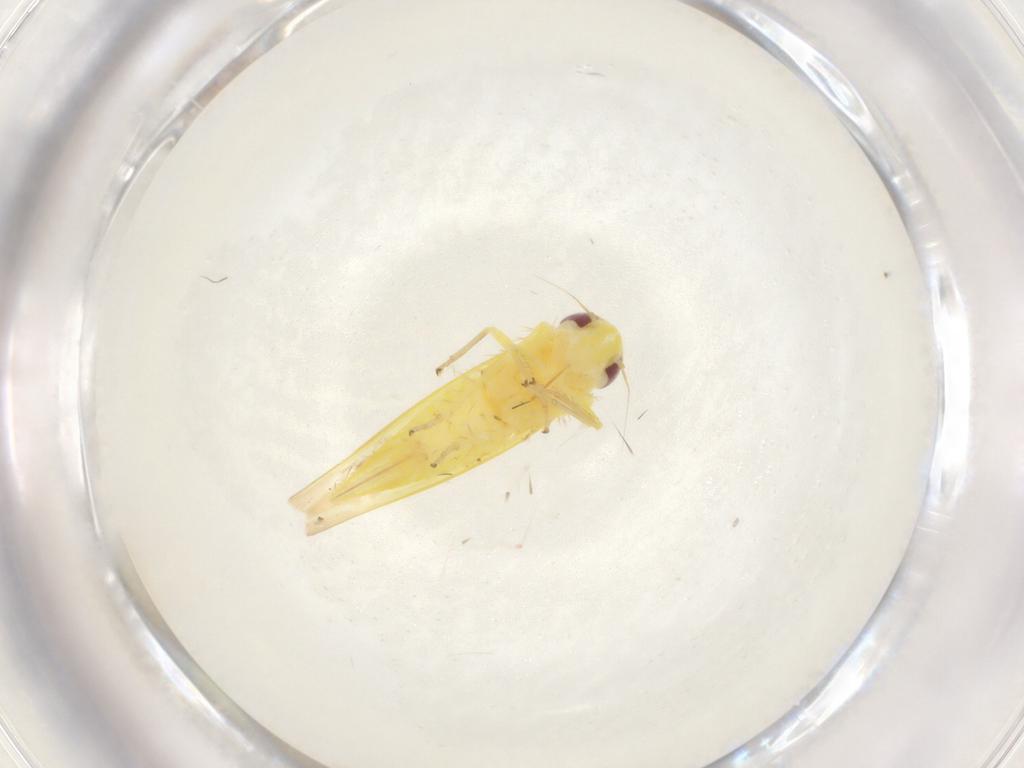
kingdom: Animalia
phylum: Arthropoda
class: Insecta
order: Hemiptera
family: Cicadellidae
